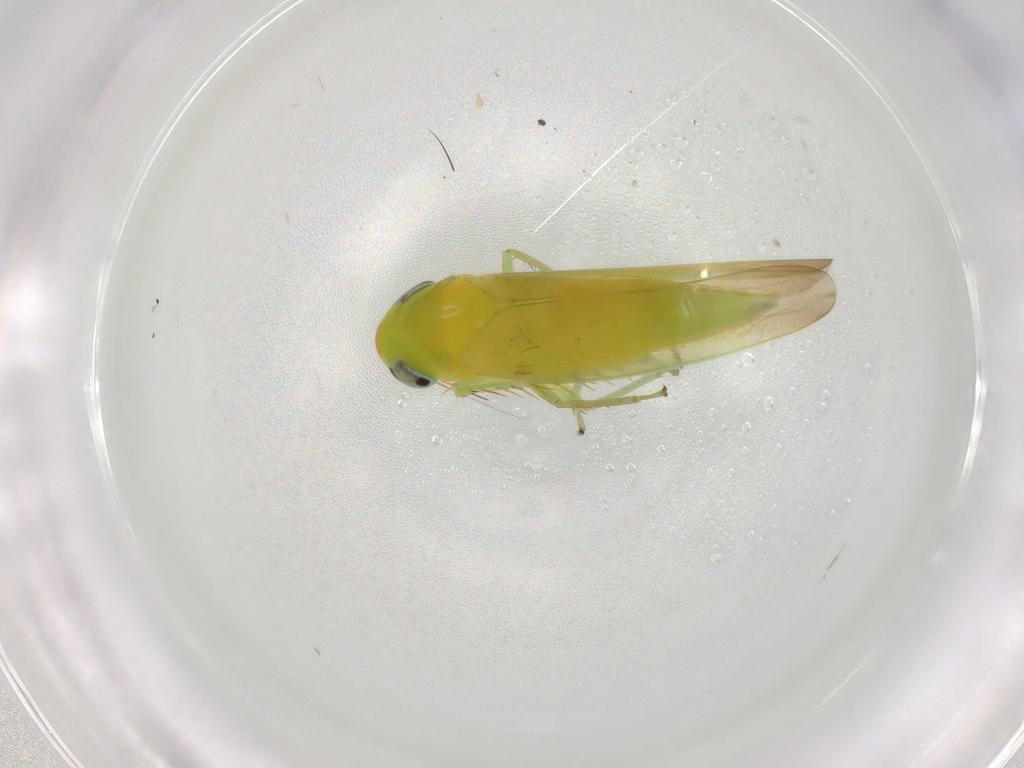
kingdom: Animalia
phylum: Arthropoda
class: Insecta
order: Hemiptera
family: Cicadellidae
